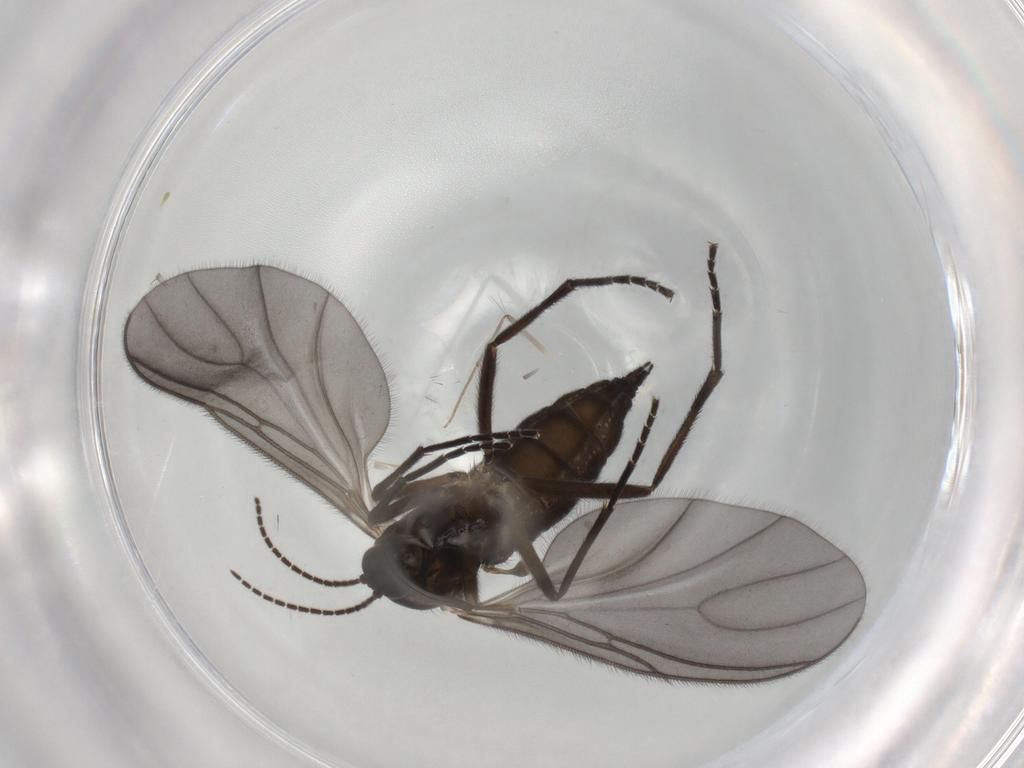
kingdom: Animalia
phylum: Arthropoda
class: Insecta
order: Diptera
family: Sciaridae
